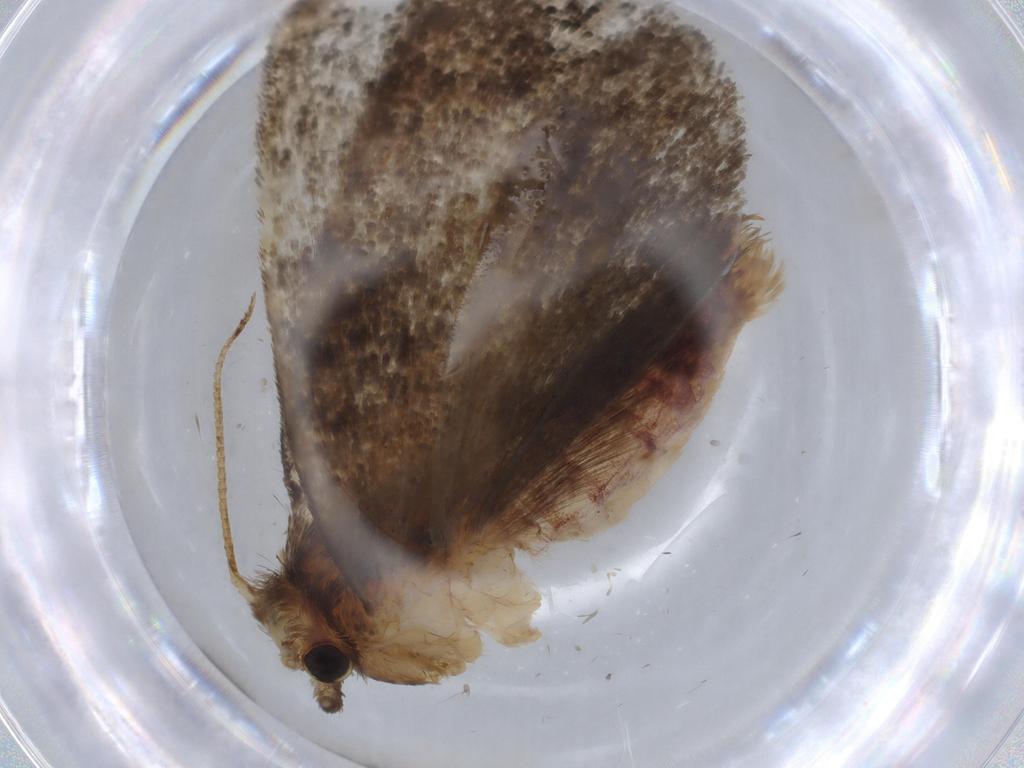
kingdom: Animalia
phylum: Arthropoda
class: Insecta
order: Lepidoptera
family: Tineidae
